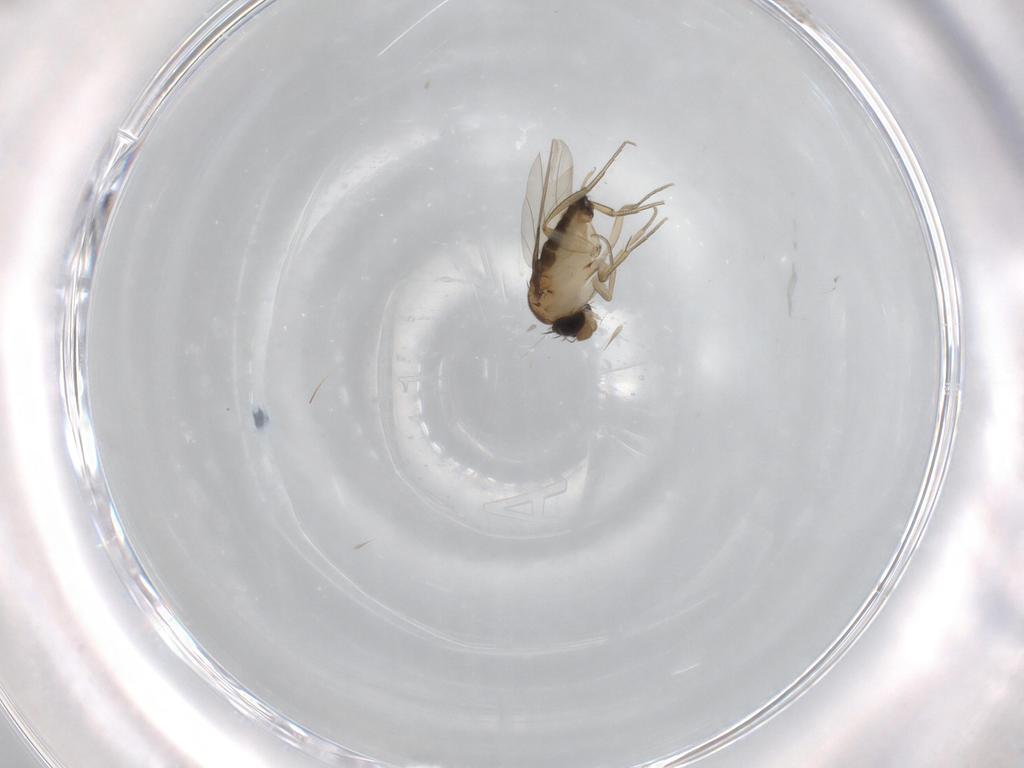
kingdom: Animalia
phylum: Arthropoda
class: Insecta
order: Diptera
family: Phoridae
